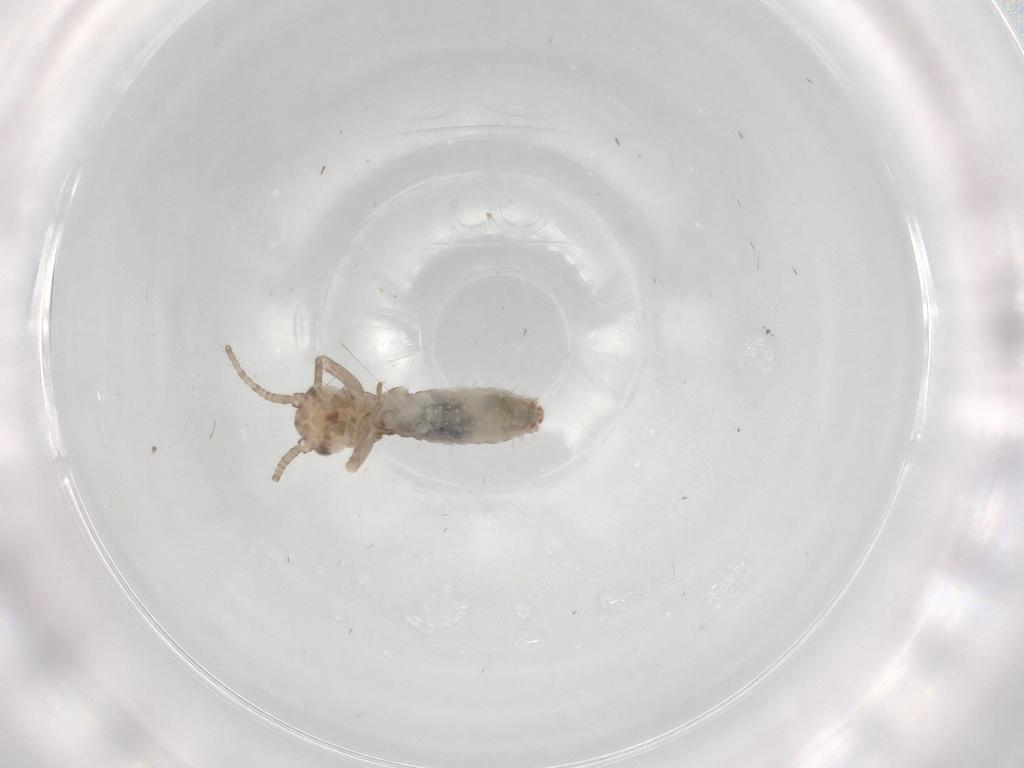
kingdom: Animalia
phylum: Arthropoda
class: Insecta
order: Orthoptera
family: Mogoplistidae
